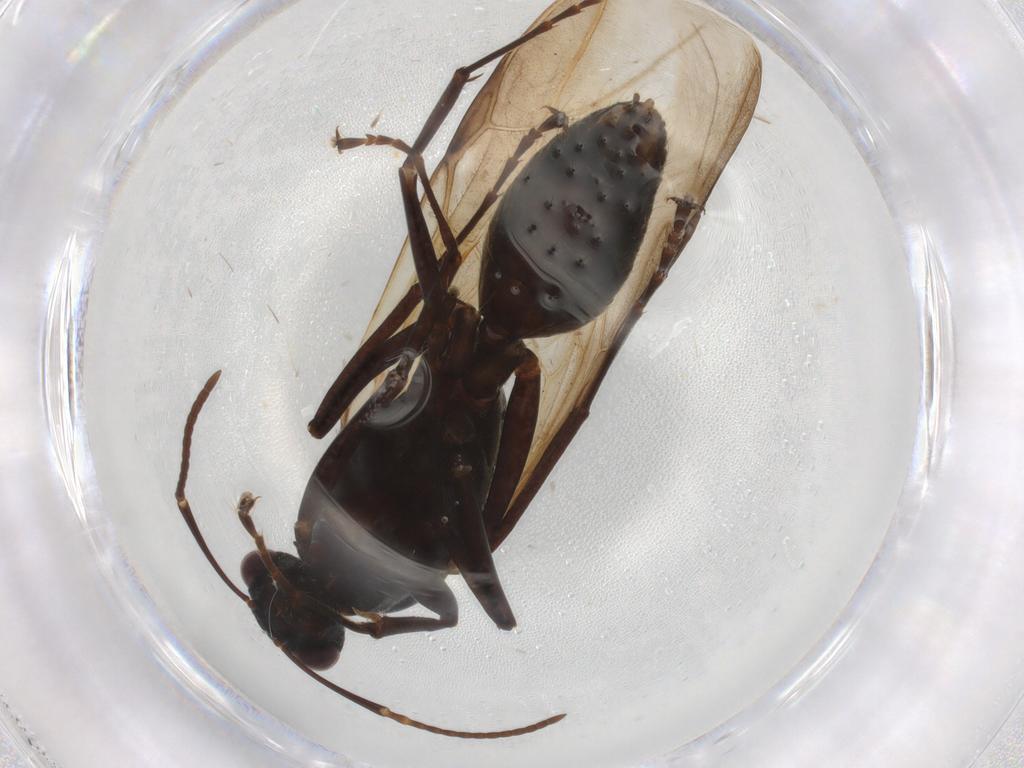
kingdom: Animalia
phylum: Arthropoda
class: Insecta
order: Hymenoptera
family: Formicidae
